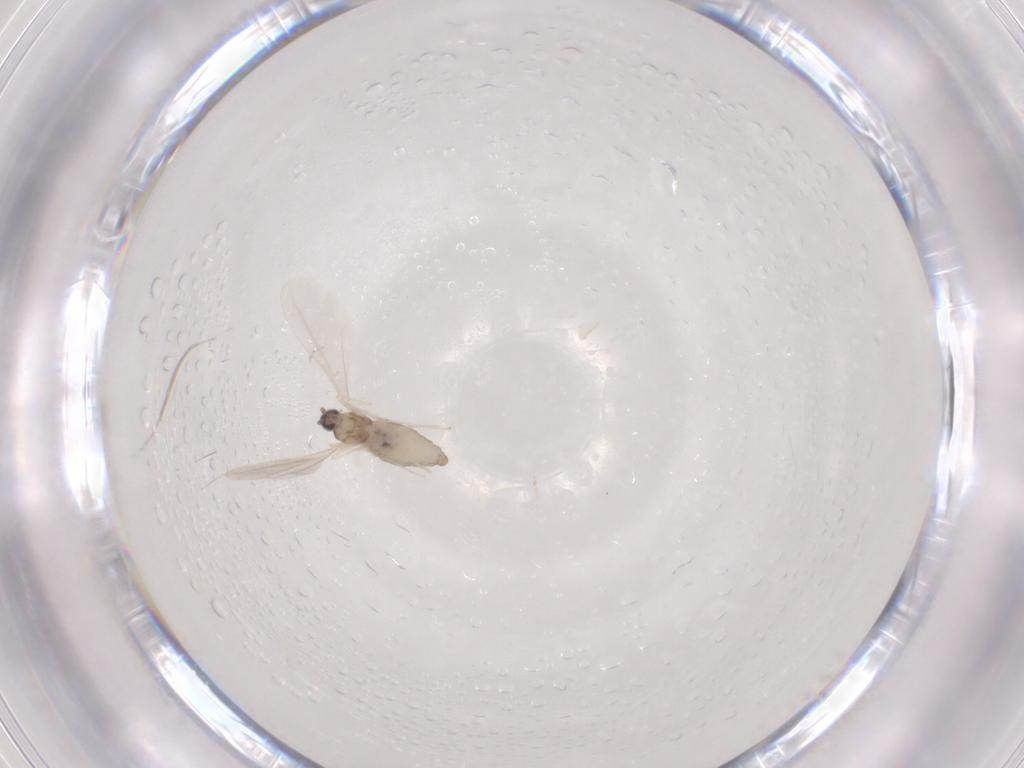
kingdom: Animalia
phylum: Arthropoda
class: Insecta
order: Diptera
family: Cecidomyiidae
